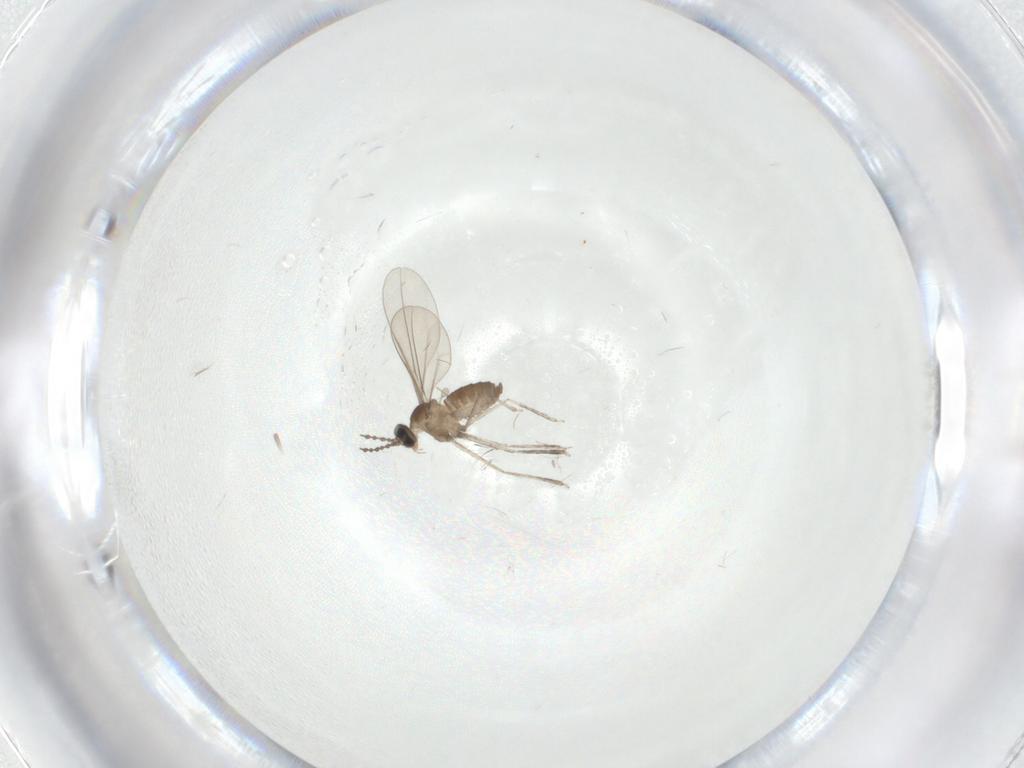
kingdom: Animalia
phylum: Arthropoda
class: Insecta
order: Diptera
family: Cecidomyiidae
